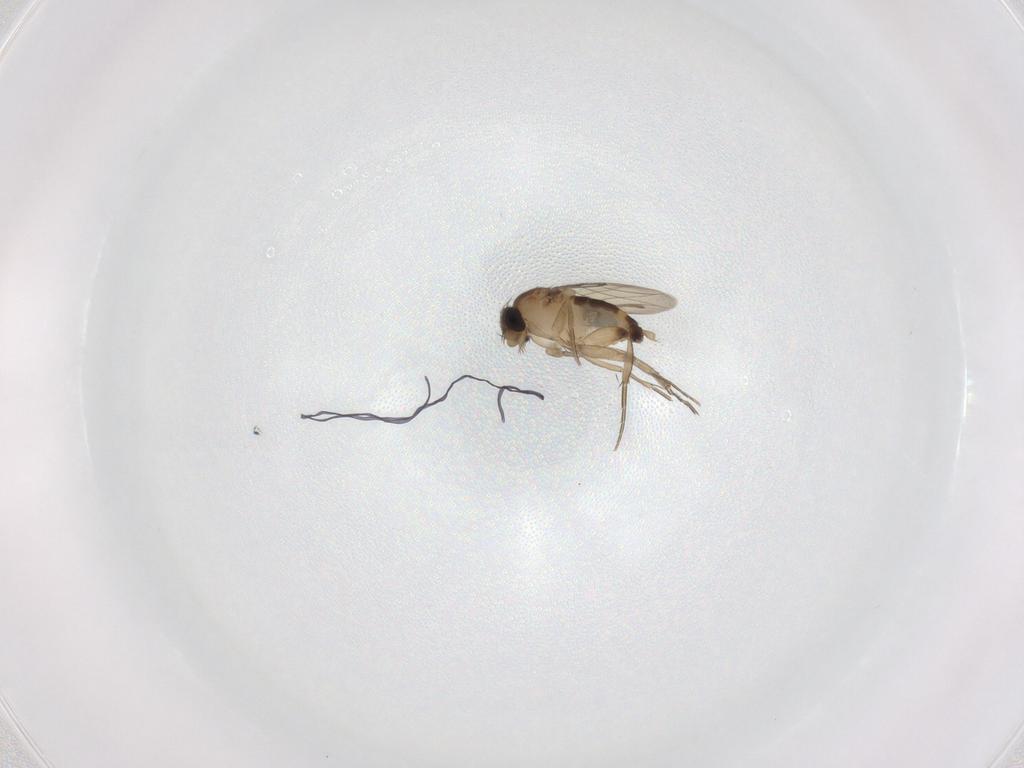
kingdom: Animalia
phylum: Arthropoda
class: Insecta
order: Diptera
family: Phoridae
